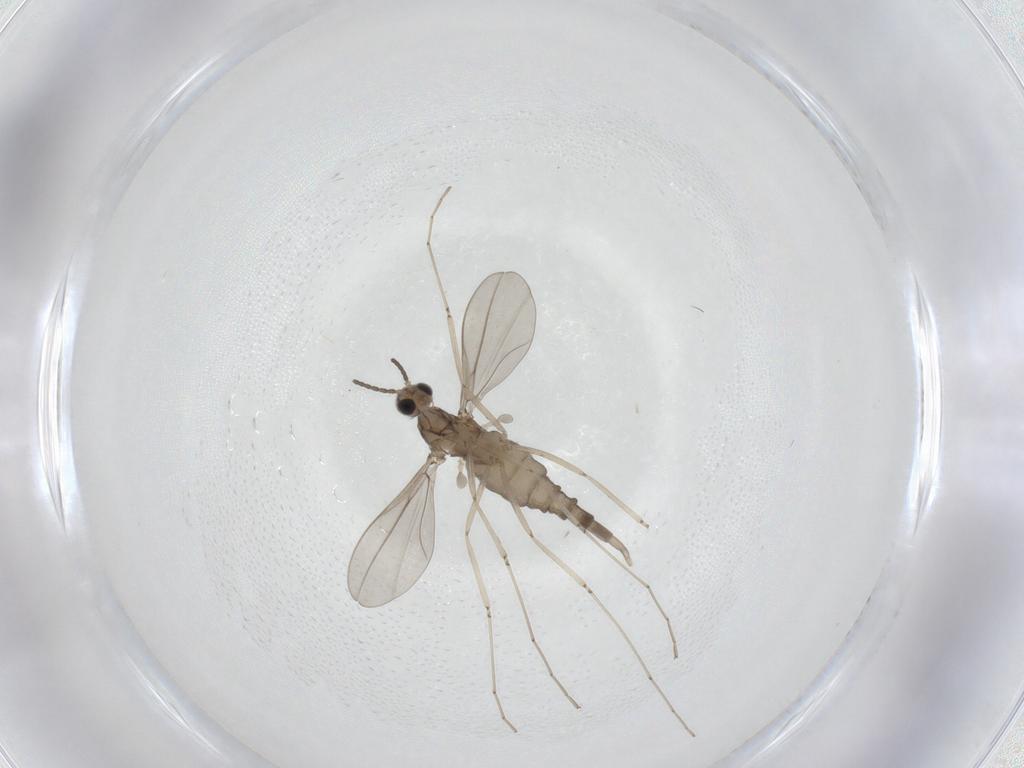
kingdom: Animalia
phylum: Arthropoda
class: Insecta
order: Diptera
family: Cecidomyiidae
